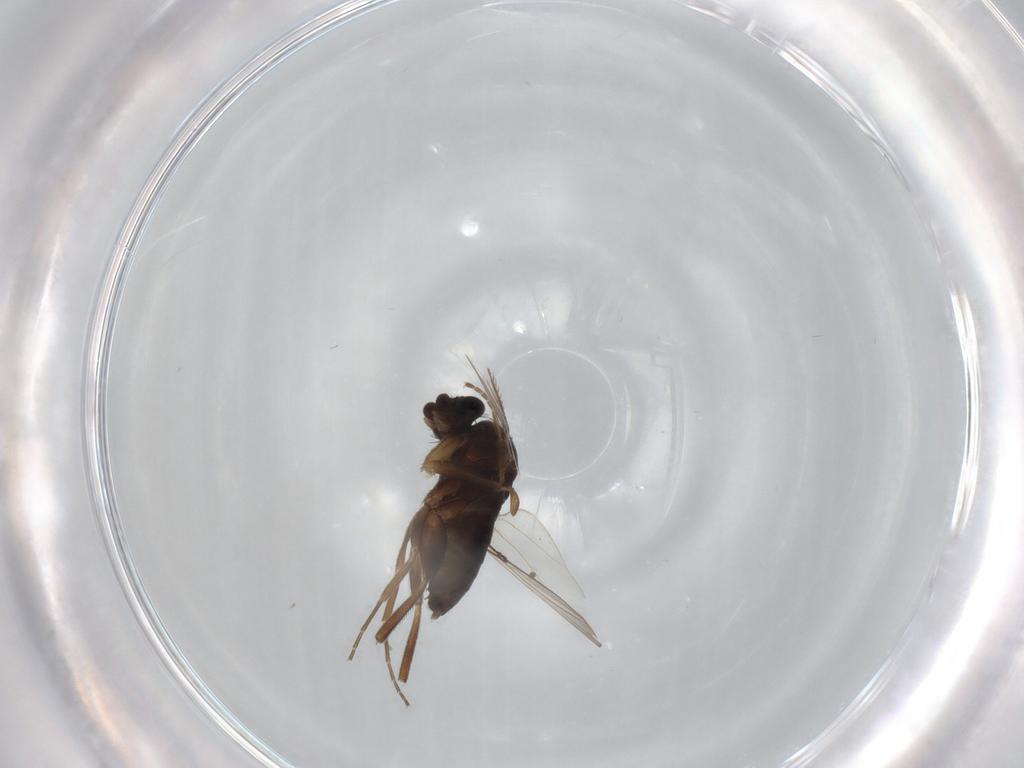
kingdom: Animalia
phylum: Arthropoda
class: Insecta
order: Diptera
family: Phoridae
